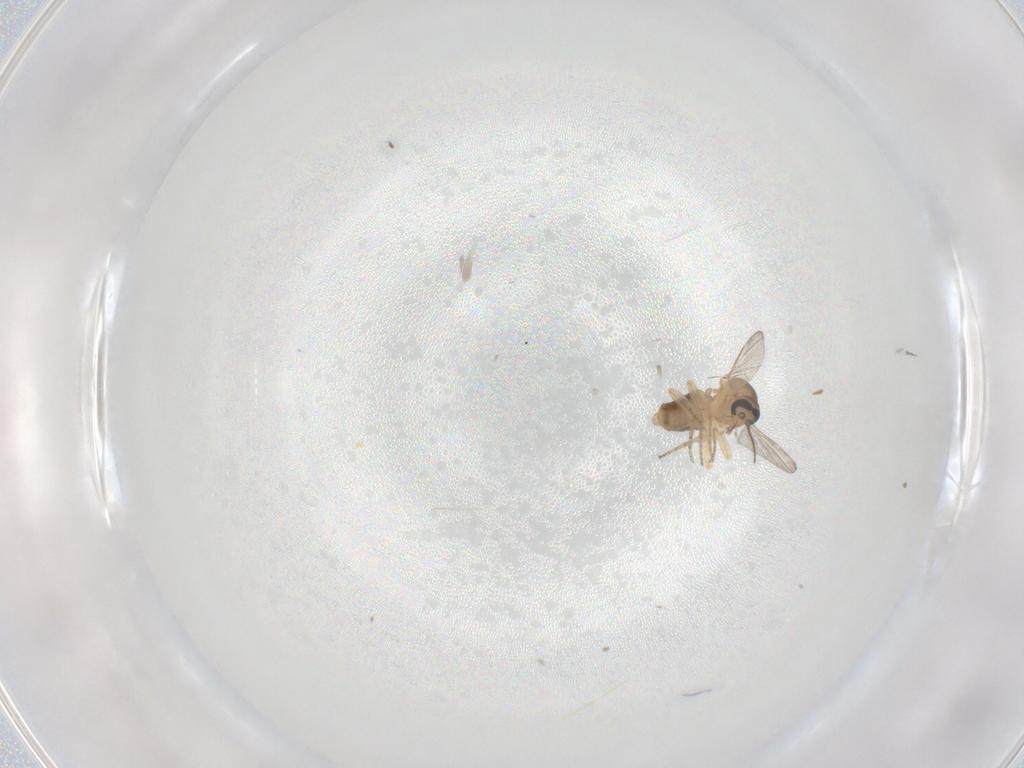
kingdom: Animalia
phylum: Arthropoda
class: Insecta
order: Diptera
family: Ceratopogonidae
